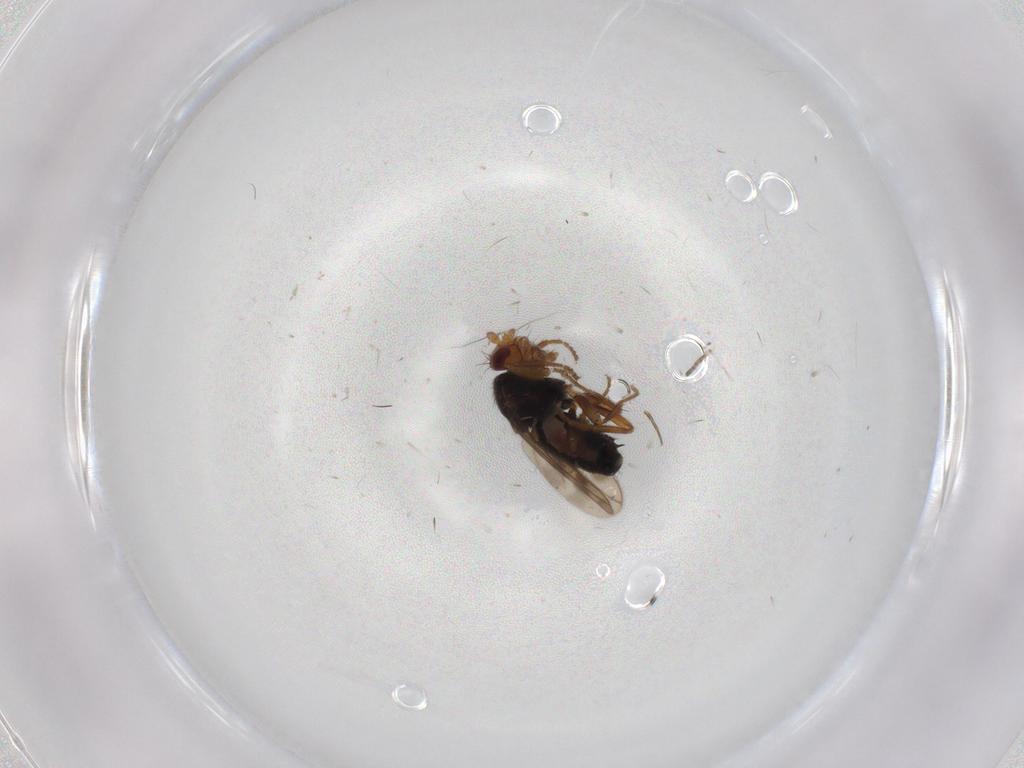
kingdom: Animalia
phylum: Arthropoda
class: Insecta
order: Diptera
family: Sphaeroceridae
